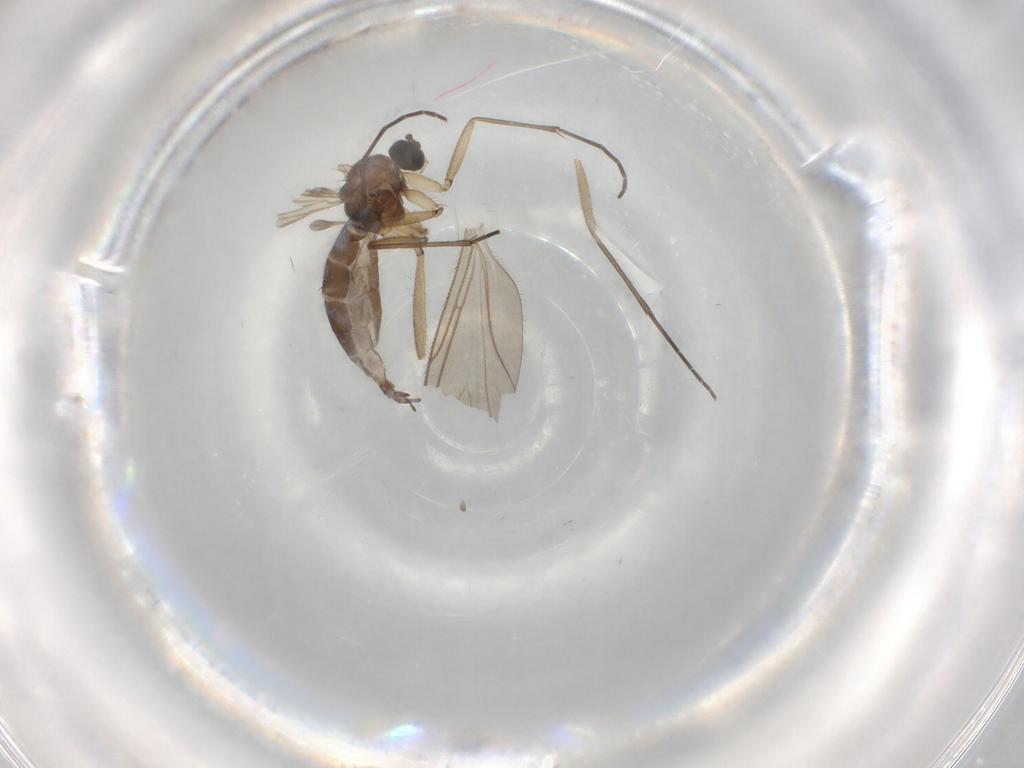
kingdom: Animalia
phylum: Arthropoda
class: Insecta
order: Diptera
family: Sciaridae
